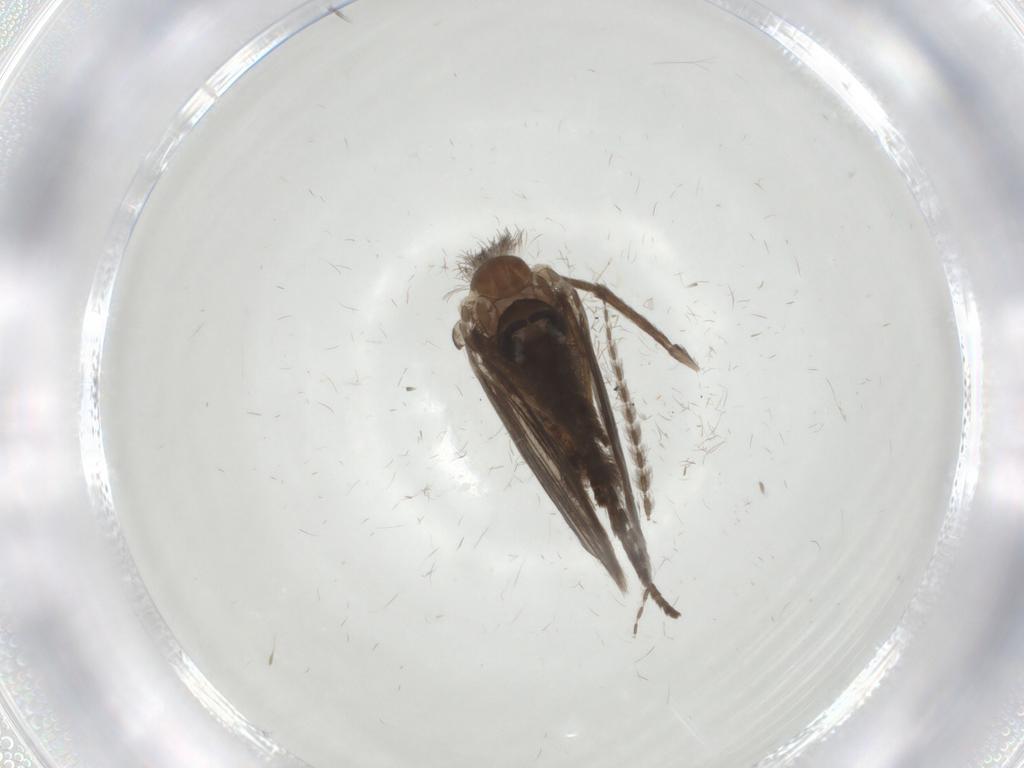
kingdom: Animalia
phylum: Arthropoda
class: Insecta
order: Diptera
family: Psychodidae
